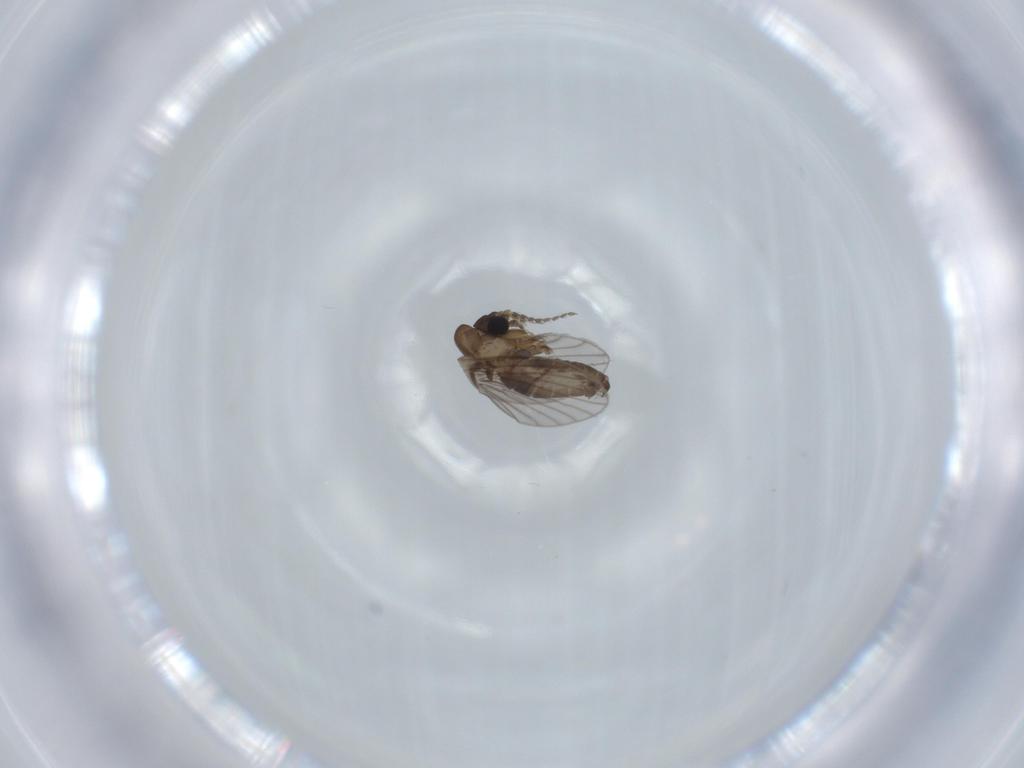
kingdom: Animalia
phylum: Arthropoda
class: Insecta
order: Diptera
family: Psychodidae
